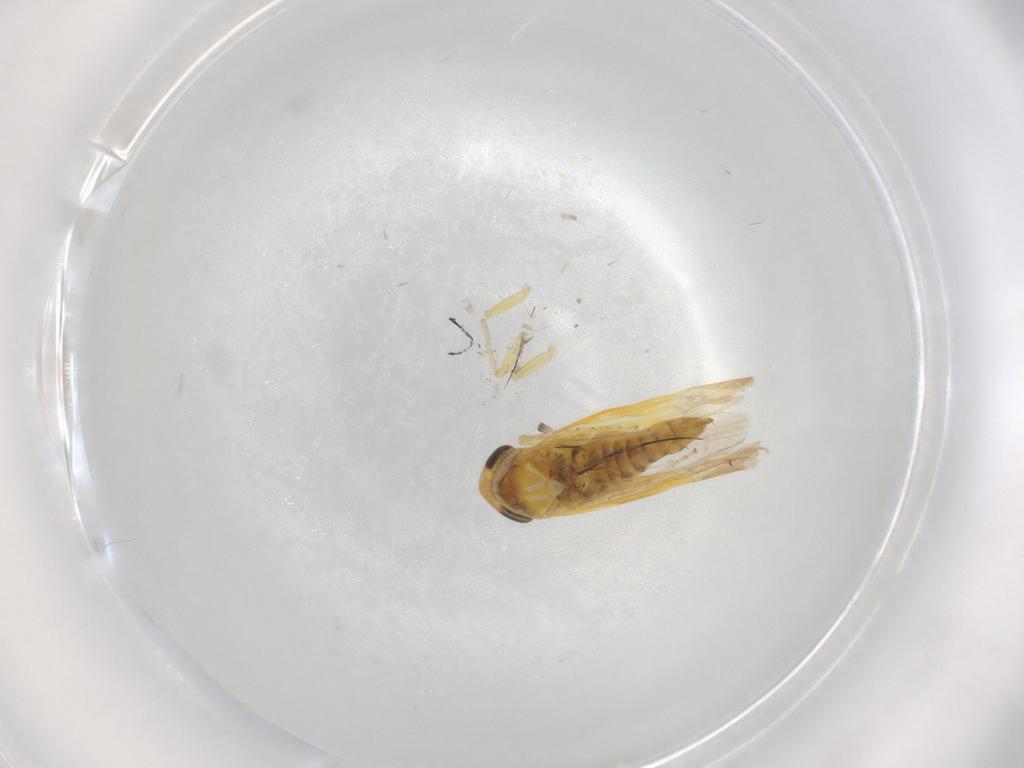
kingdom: Animalia
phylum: Arthropoda
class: Insecta
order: Hemiptera
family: Cicadellidae
